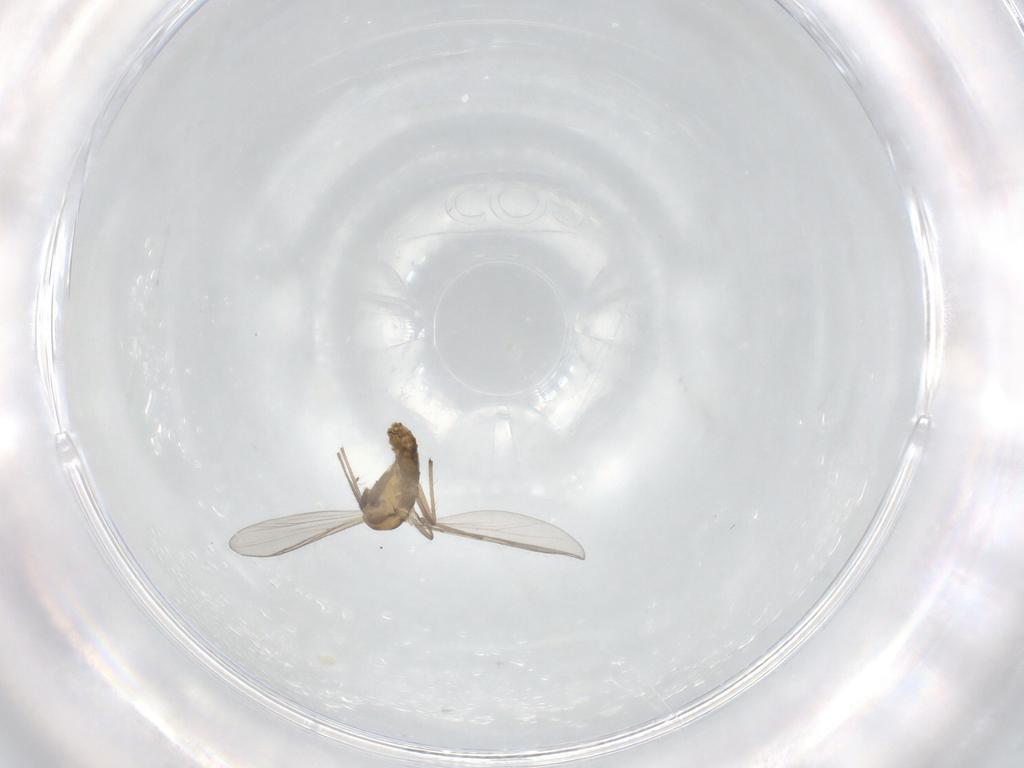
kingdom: Animalia
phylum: Arthropoda
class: Insecta
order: Diptera
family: Chironomidae
